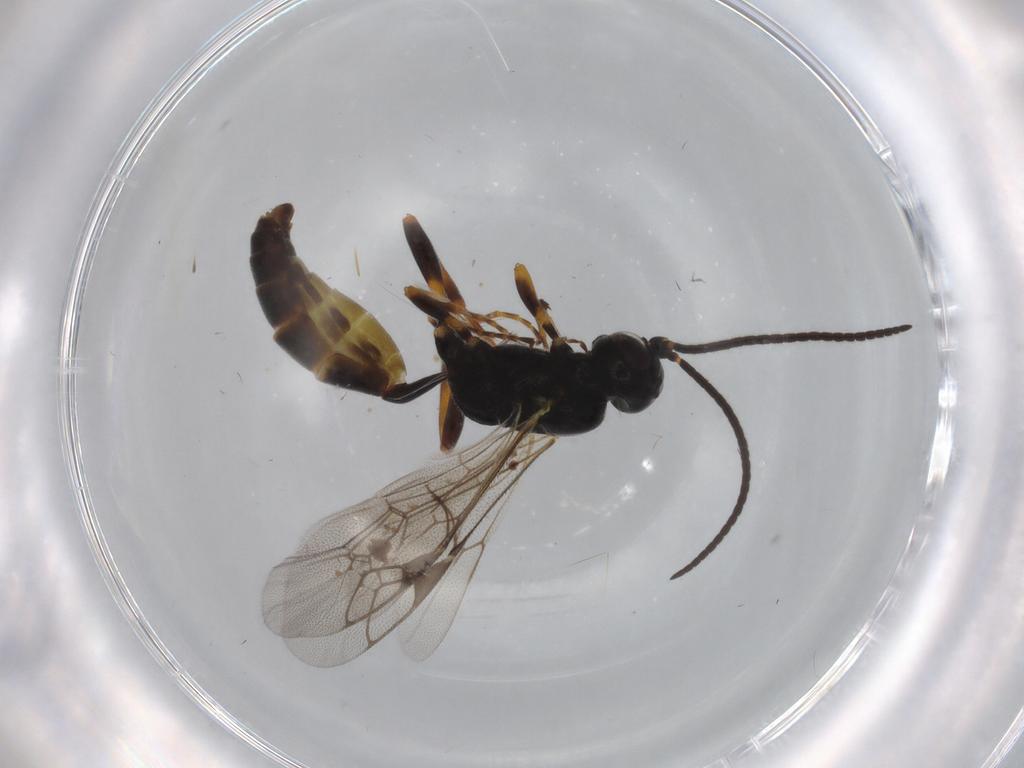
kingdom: Animalia
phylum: Arthropoda
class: Insecta
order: Hymenoptera
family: Ichneumonidae
